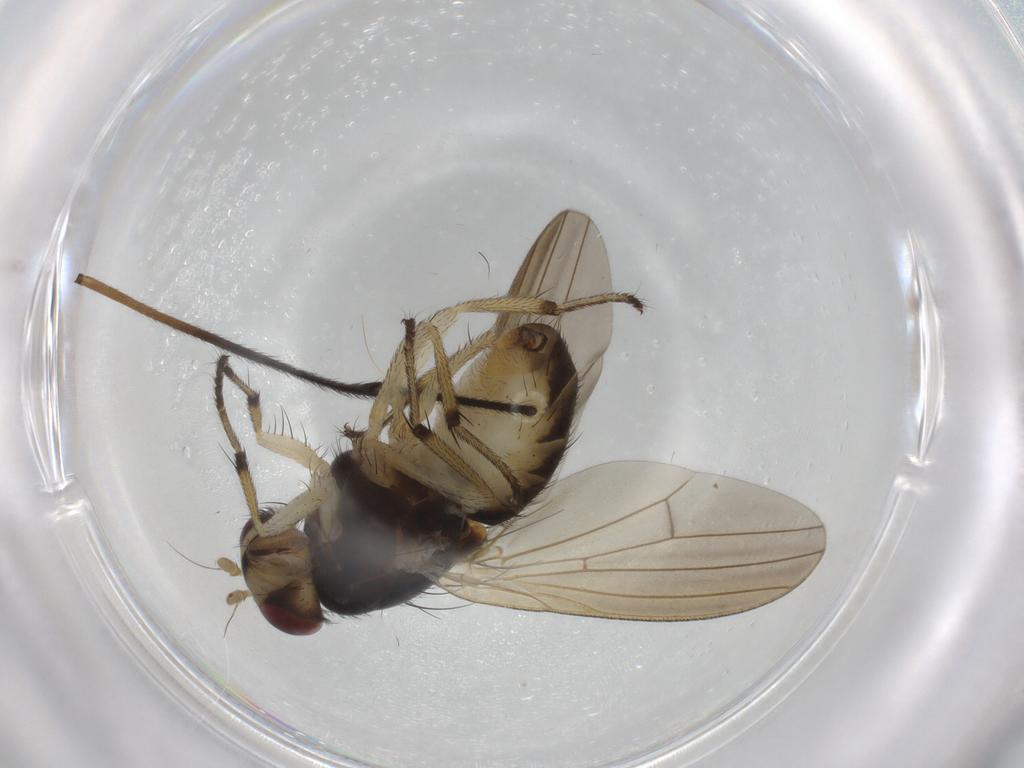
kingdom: Animalia
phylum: Arthropoda
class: Insecta
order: Diptera
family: Limoniidae
